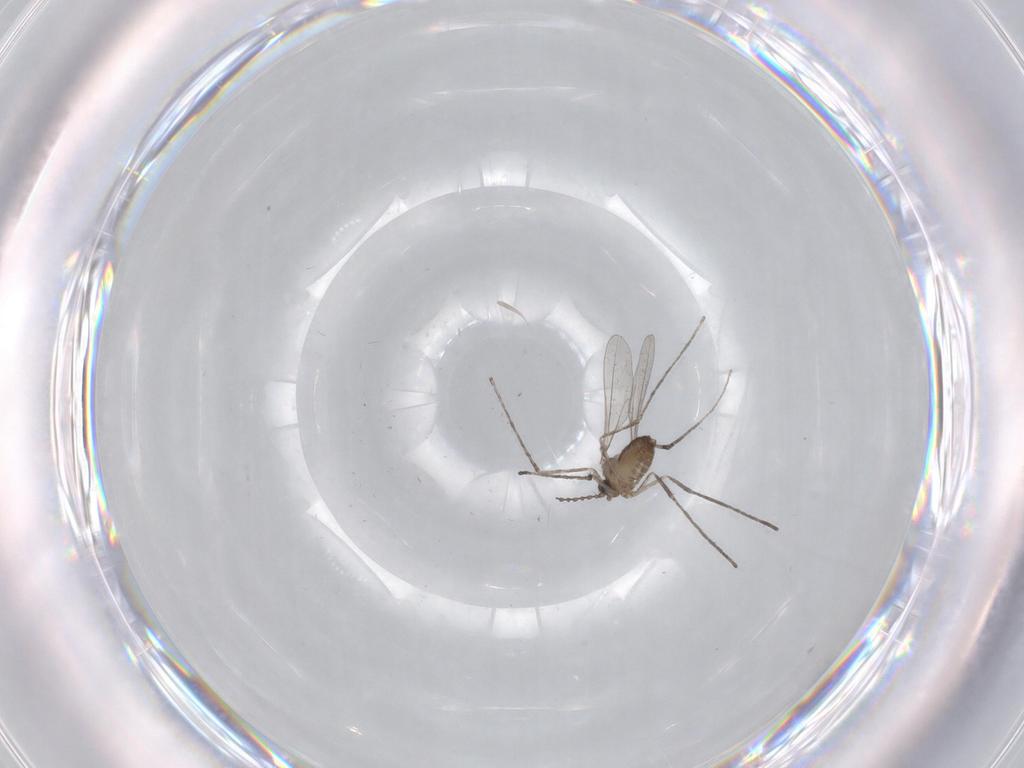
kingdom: Animalia
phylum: Arthropoda
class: Insecta
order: Diptera
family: Cecidomyiidae
